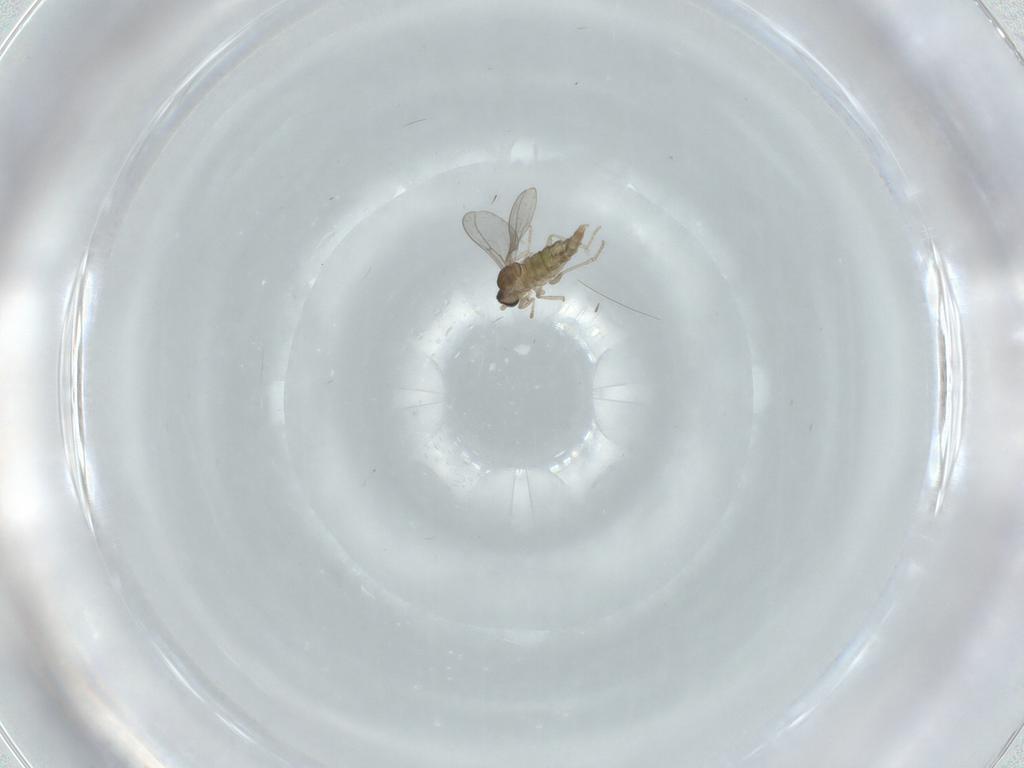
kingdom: Animalia
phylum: Arthropoda
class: Insecta
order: Diptera
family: Cecidomyiidae
